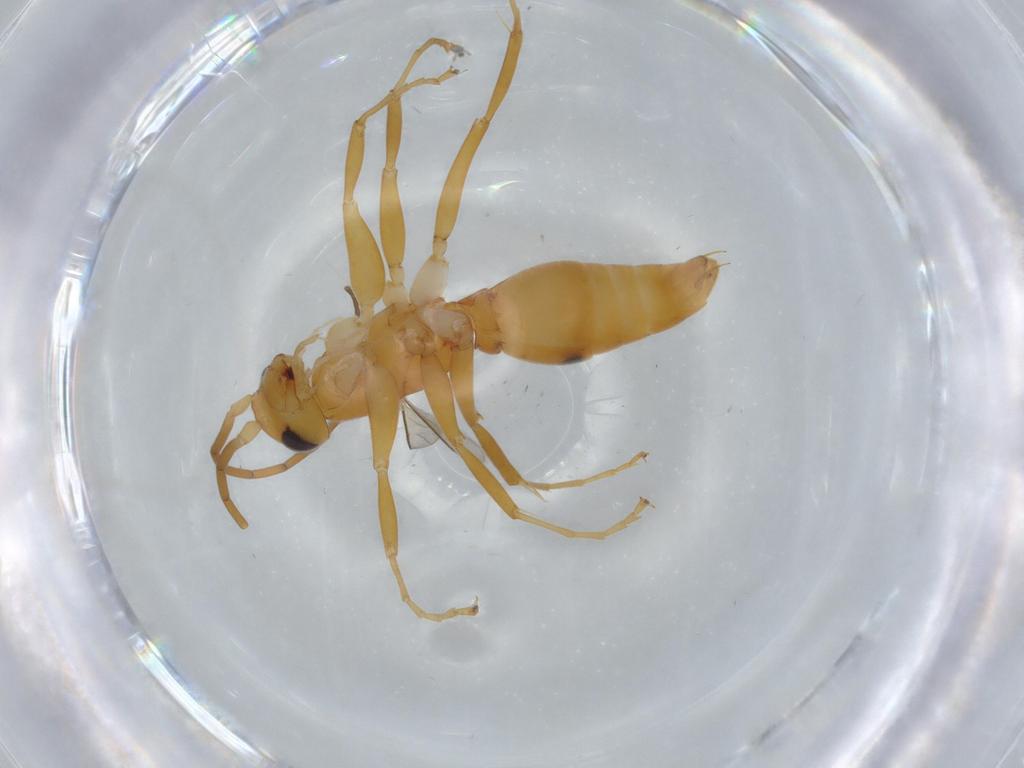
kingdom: Animalia
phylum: Arthropoda
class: Insecta
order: Hymenoptera
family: Rhopalosomatidae
